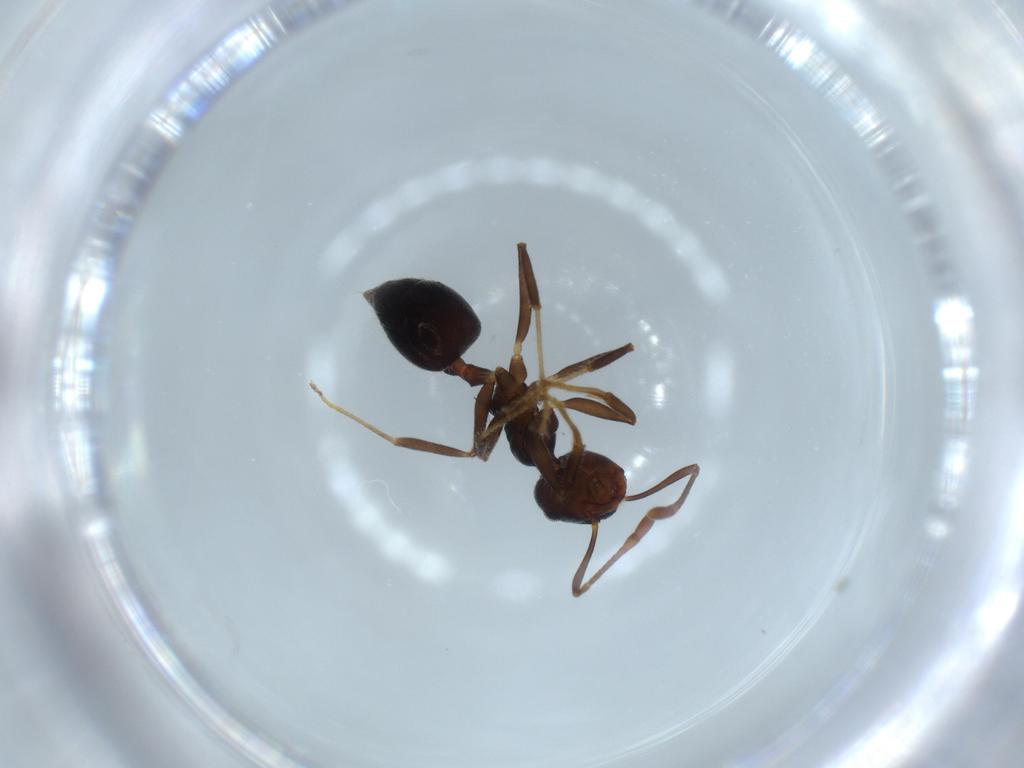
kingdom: Animalia
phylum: Arthropoda
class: Insecta
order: Hymenoptera
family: Formicidae
